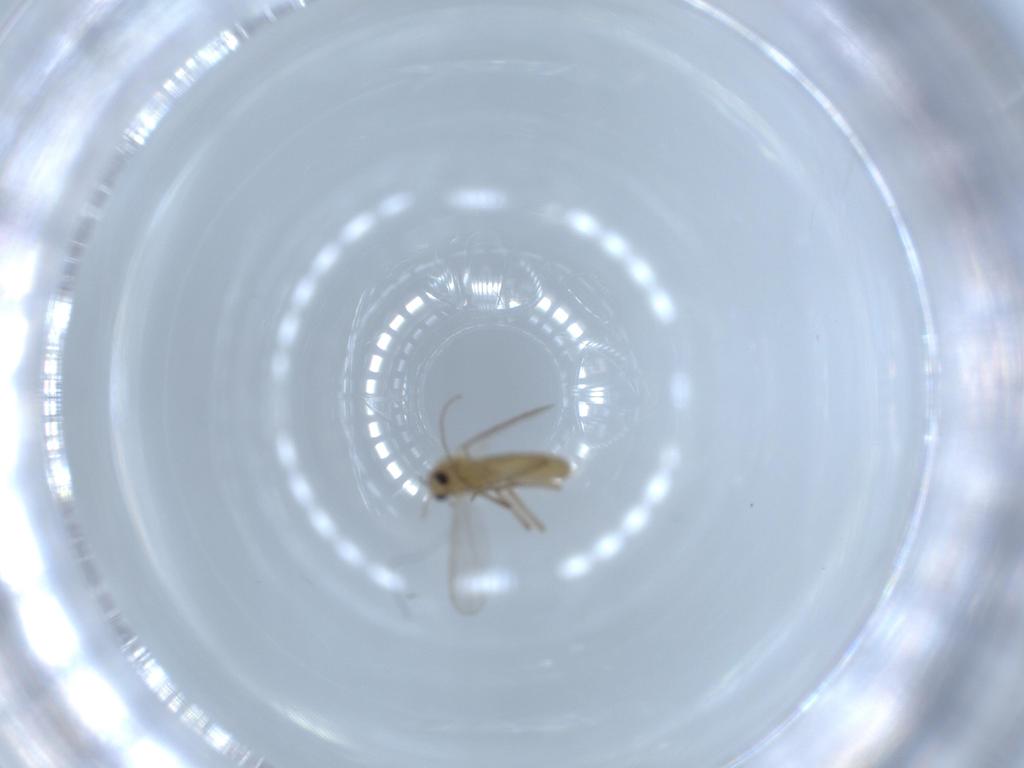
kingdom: Animalia
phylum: Arthropoda
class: Insecta
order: Diptera
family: Chironomidae
